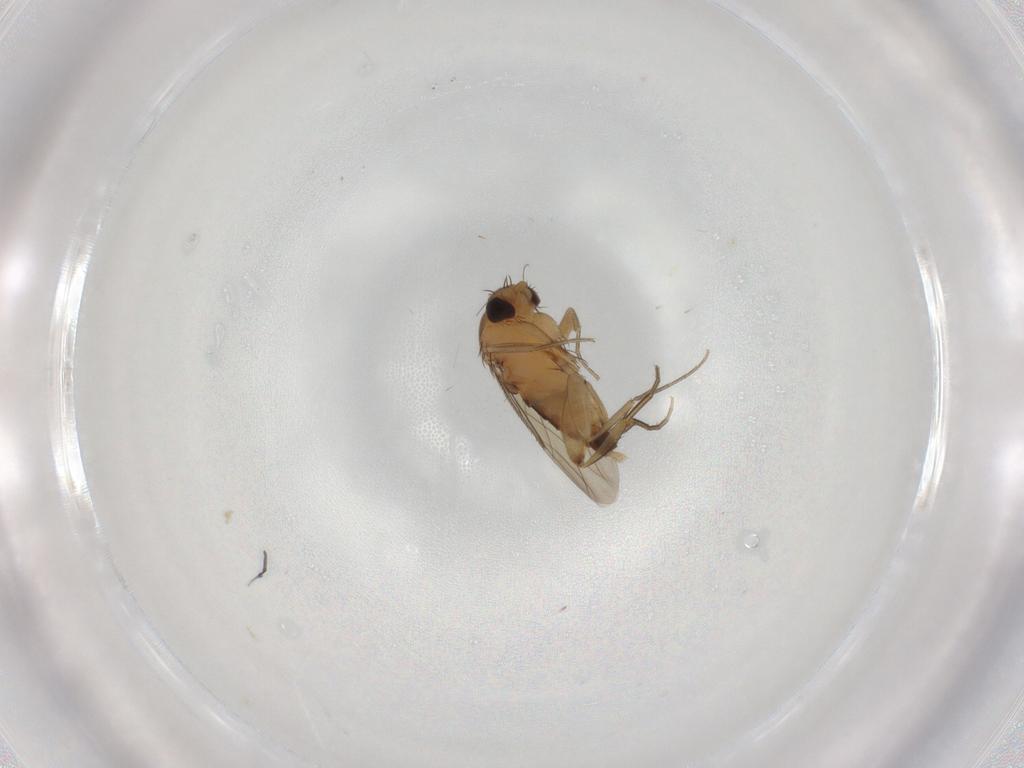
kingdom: Animalia
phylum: Arthropoda
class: Insecta
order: Diptera
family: Phoridae
